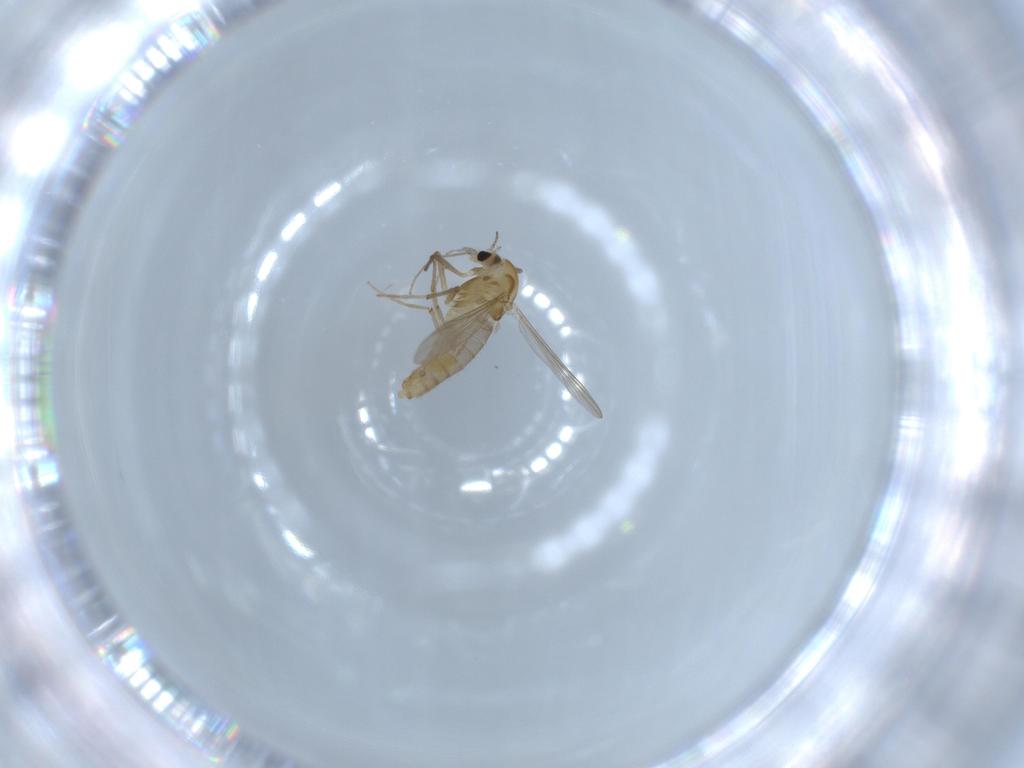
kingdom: Animalia
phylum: Arthropoda
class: Insecta
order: Diptera
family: Chironomidae
